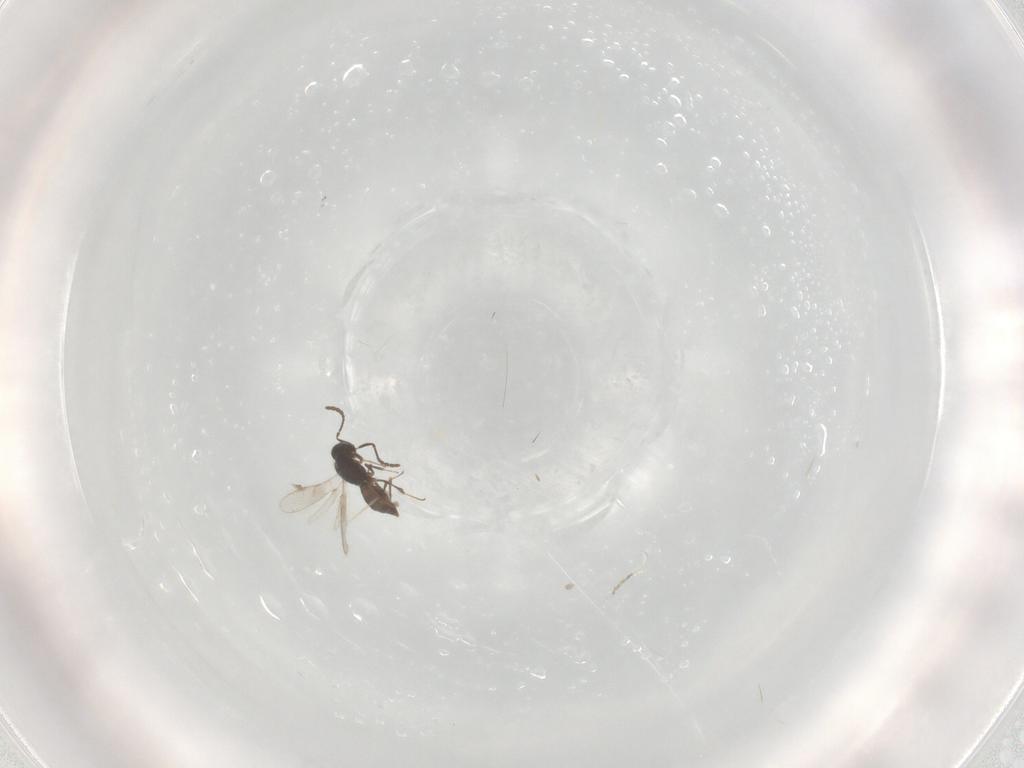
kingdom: Animalia
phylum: Arthropoda
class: Insecta
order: Hymenoptera
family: Scelionidae
